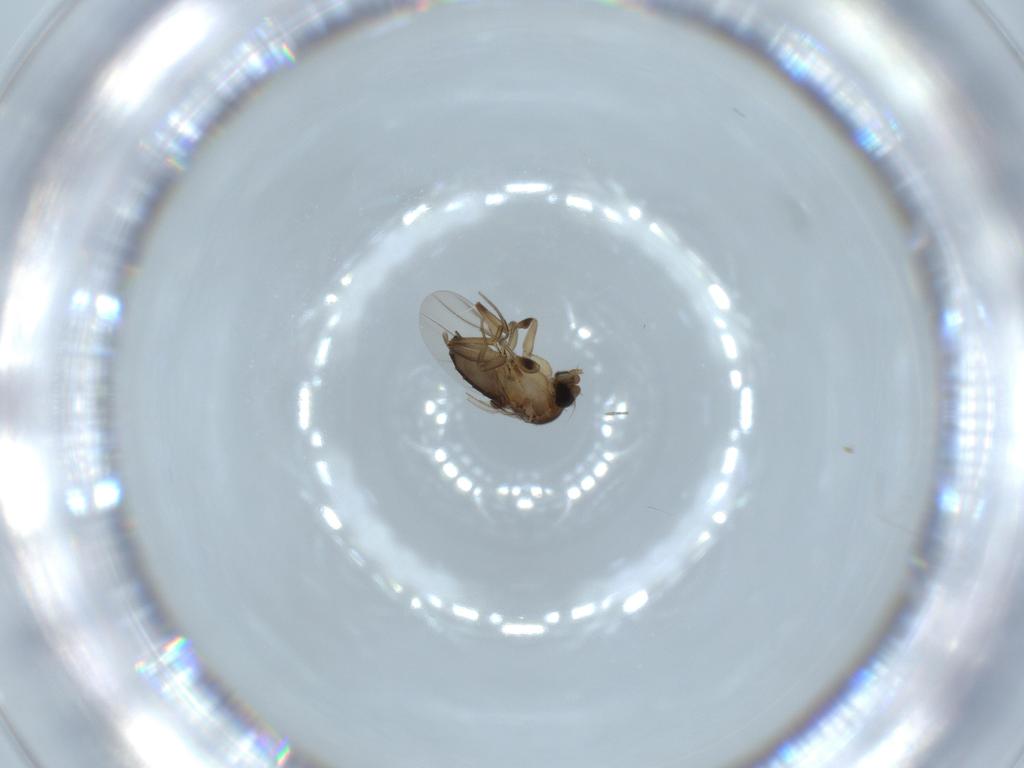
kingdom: Animalia
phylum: Arthropoda
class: Insecta
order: Diptera
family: Phoridae
